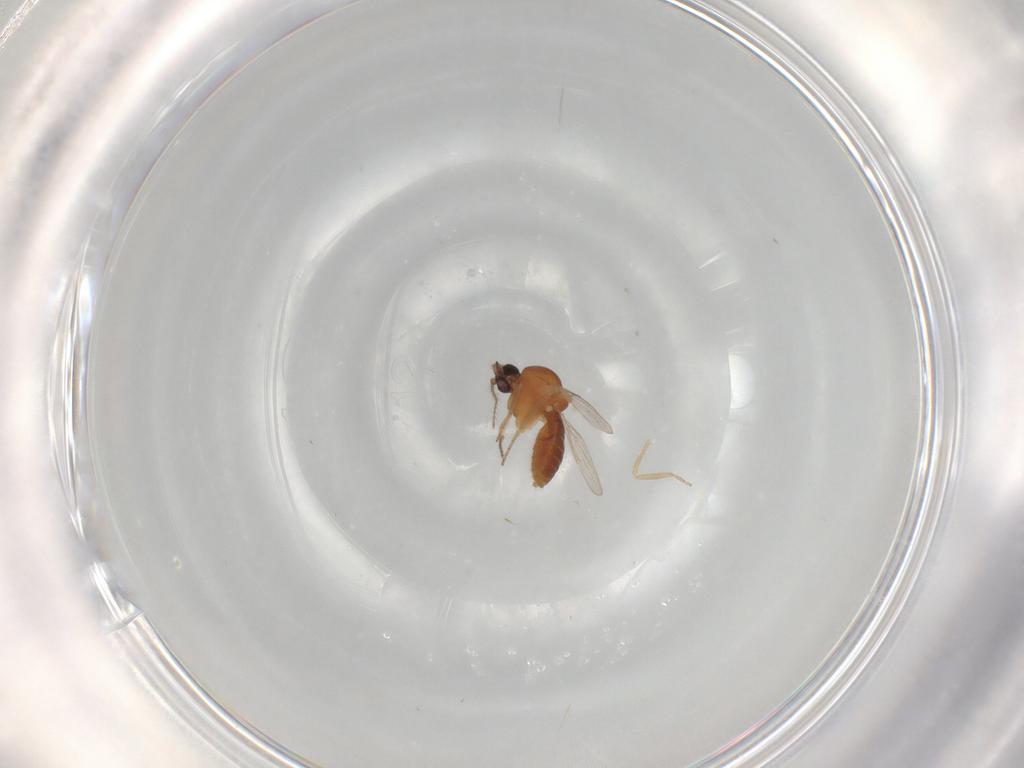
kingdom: Animalia
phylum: Arthropoda
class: Insecta
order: Diptera
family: Ceratopogonidae
